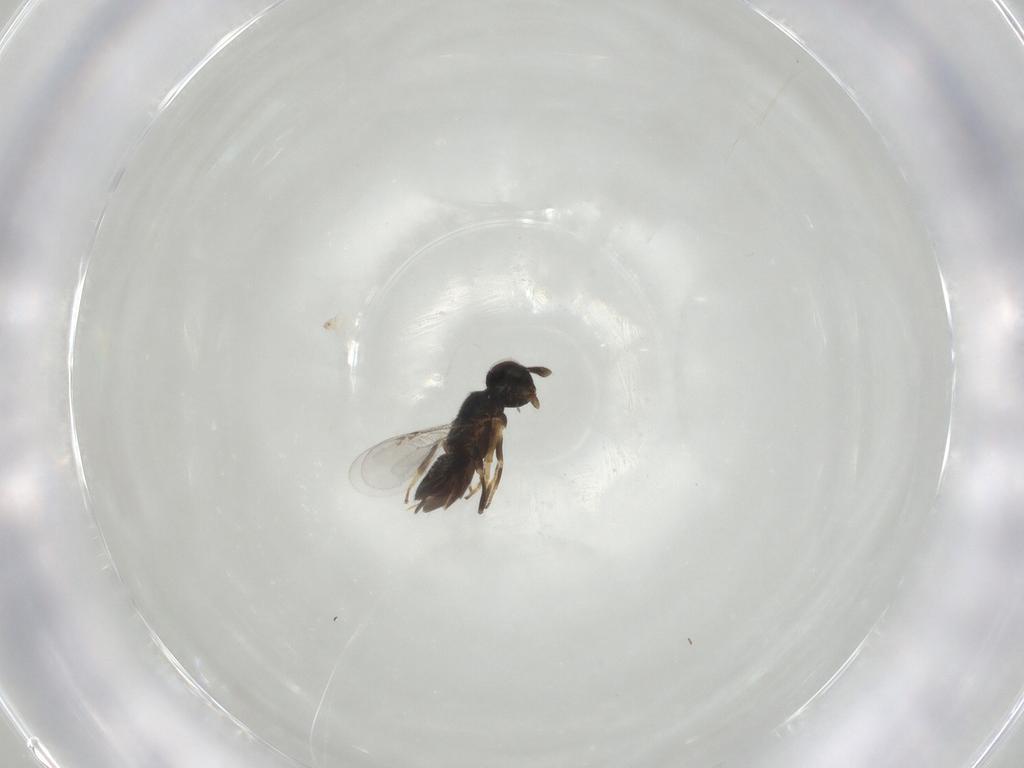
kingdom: Animalia
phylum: Arthropoda
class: Insecta
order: Hymenoptera
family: Encyrtidae
